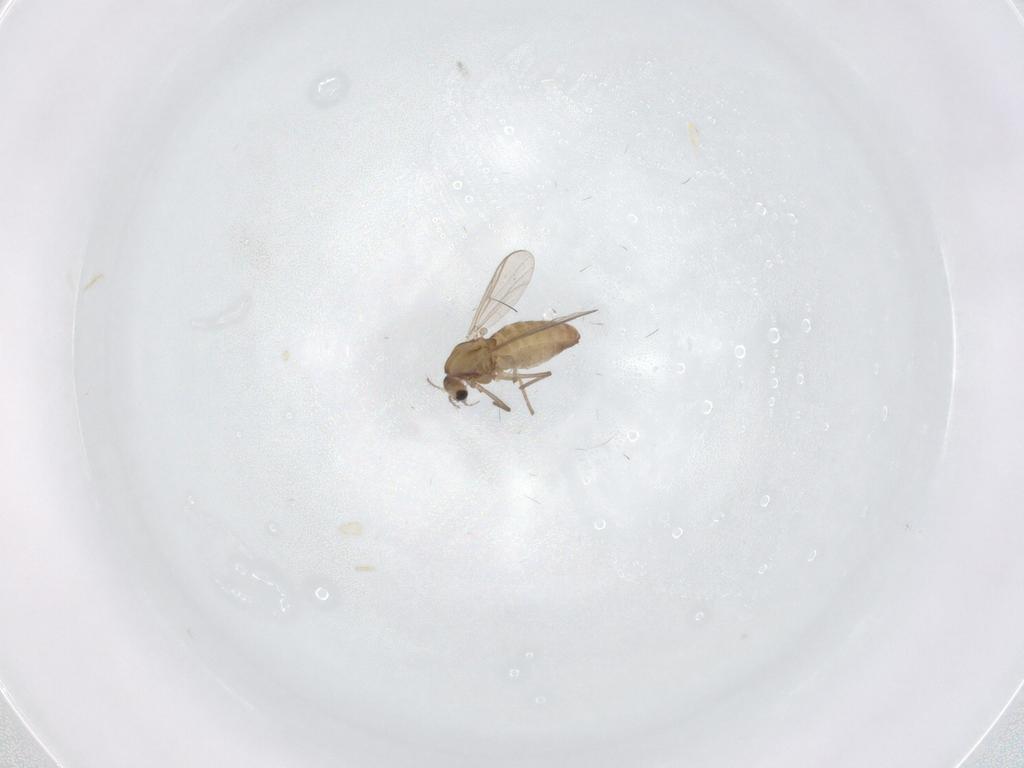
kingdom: Animalia
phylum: Arthropoda
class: Insecta
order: Diptera
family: Chironomidae
